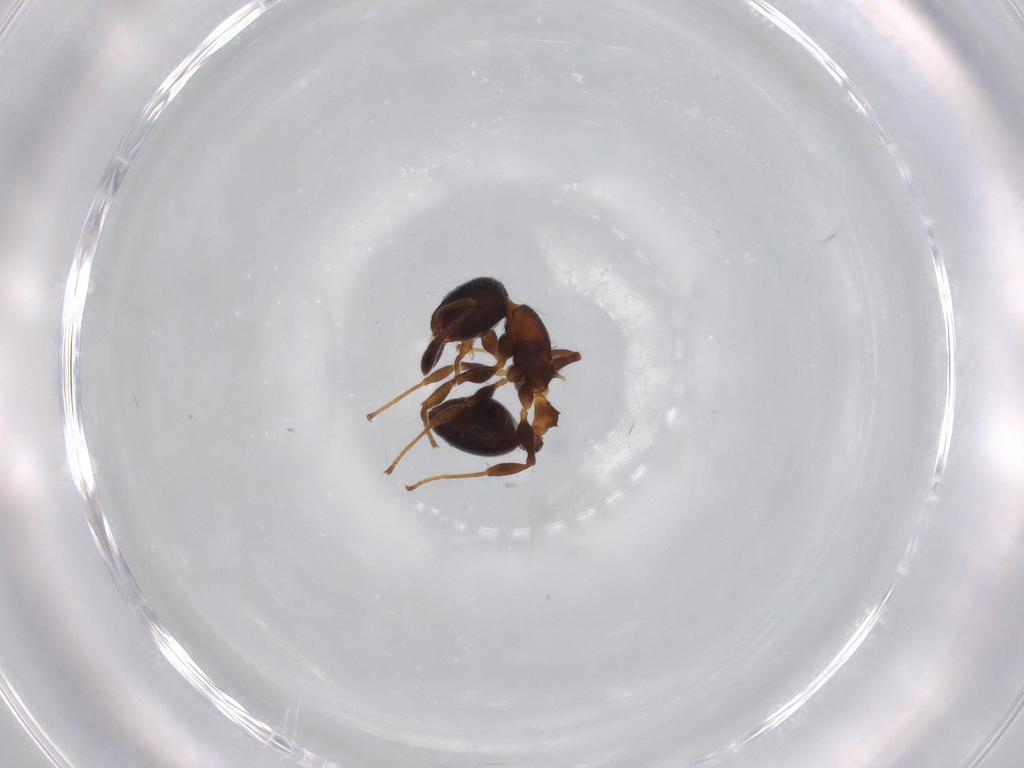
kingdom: Animalia
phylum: Arthropoda
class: Insecta
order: Hymenoptera
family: Formicidae
